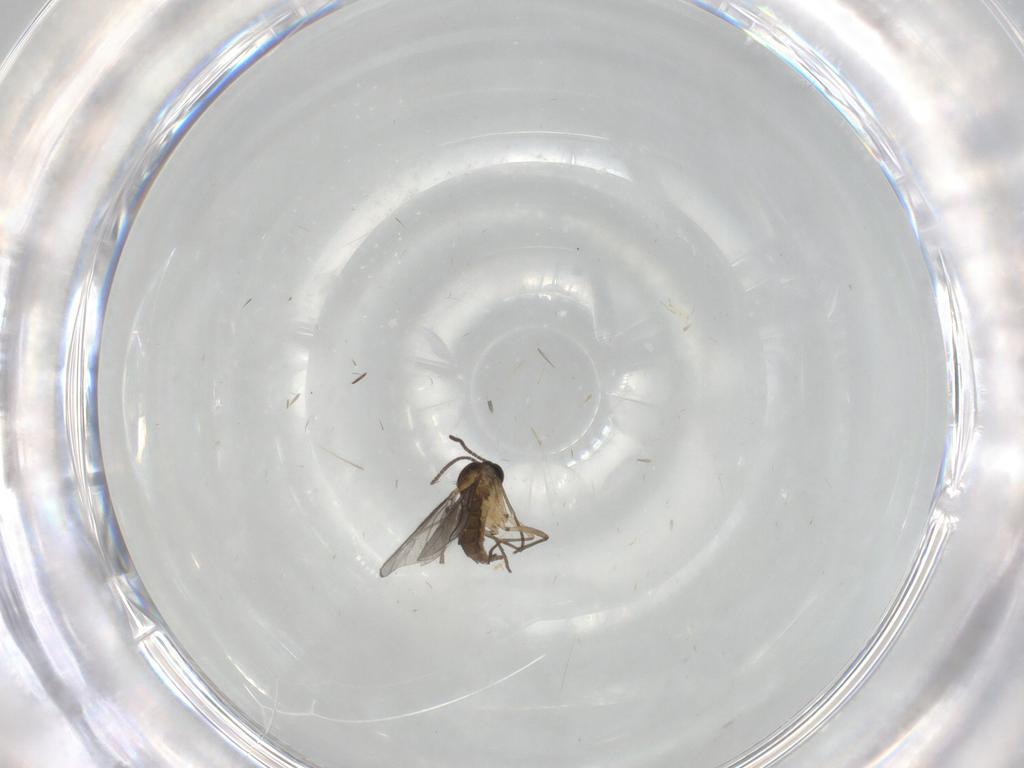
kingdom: Animalia
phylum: Arthropoda
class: Insecta
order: Diptera
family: Sciaridae
